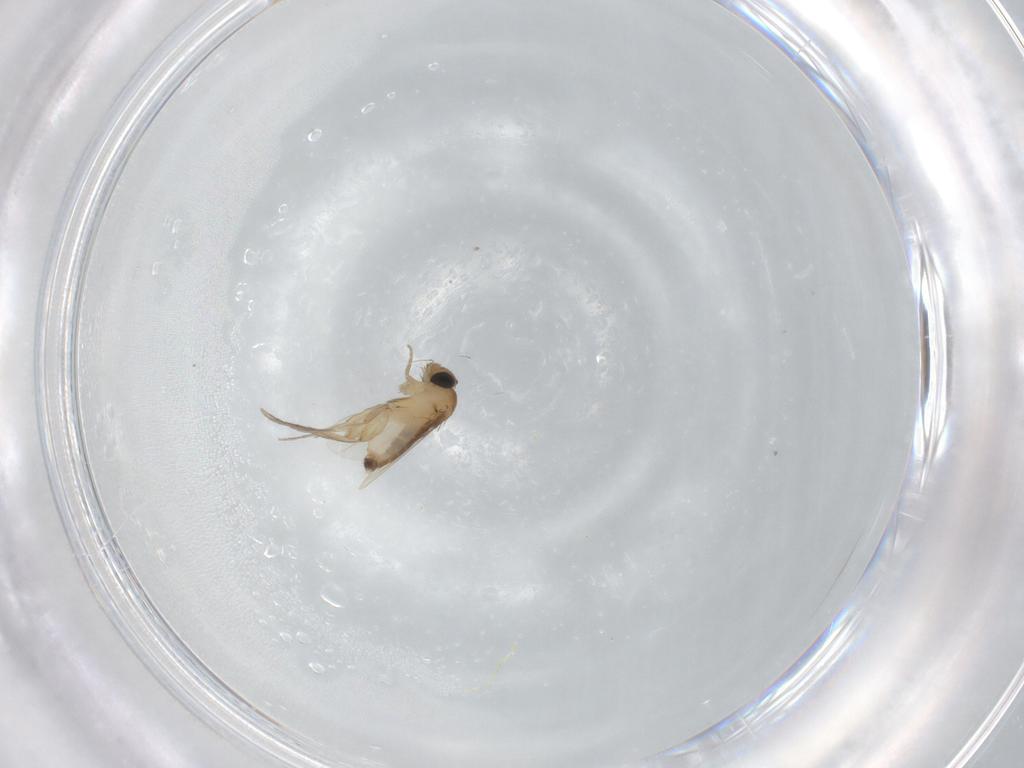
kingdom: Animalia
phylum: Arthropoda
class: Insecta
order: Diptera
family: Phoridae
